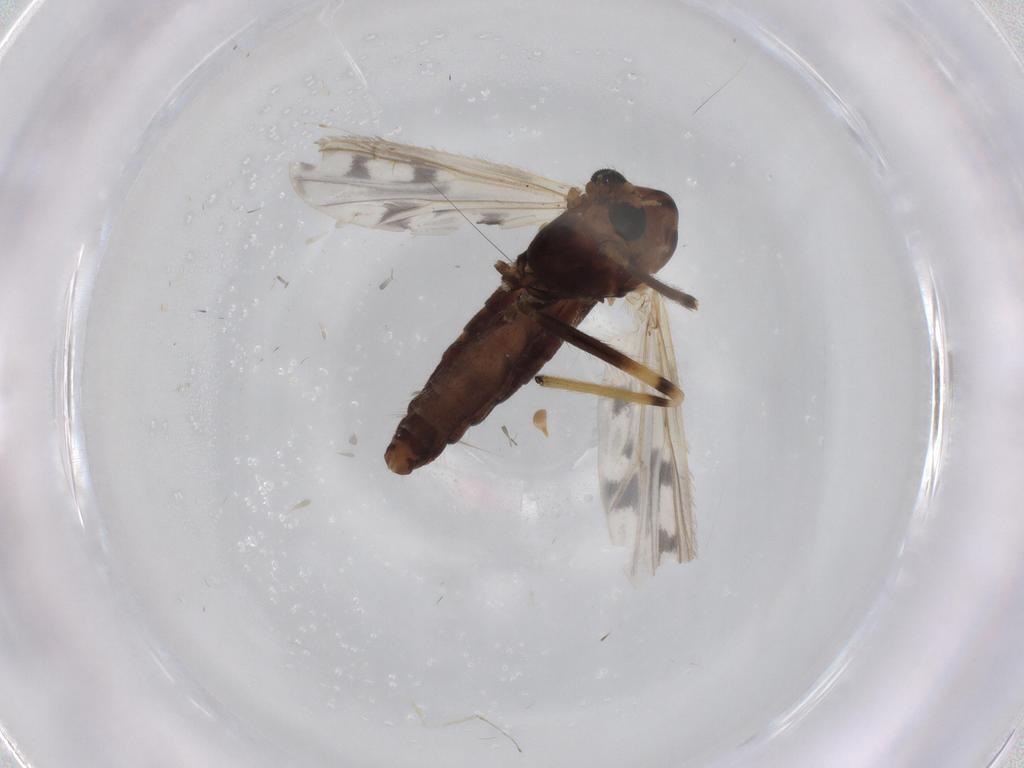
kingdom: Animalia
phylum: Arthropoda
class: Insecta
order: Diptera
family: Chironomidae
